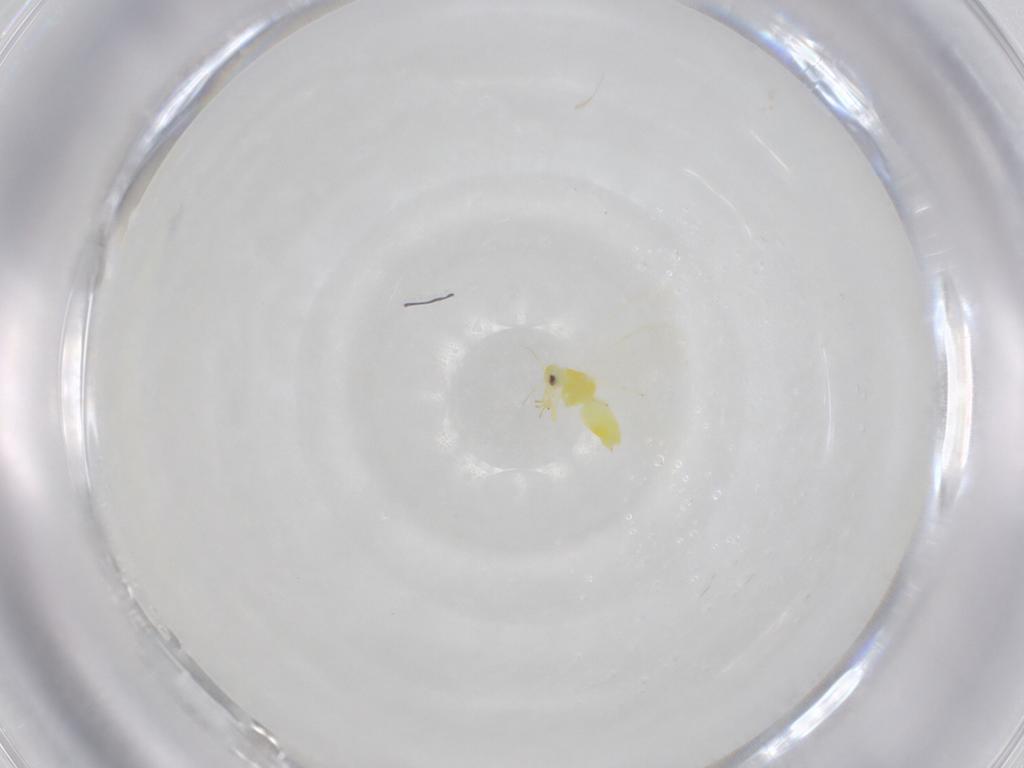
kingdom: Animalia
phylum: Arthropoda
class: Insecta
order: Hemiptera
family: Aleyrodidae
